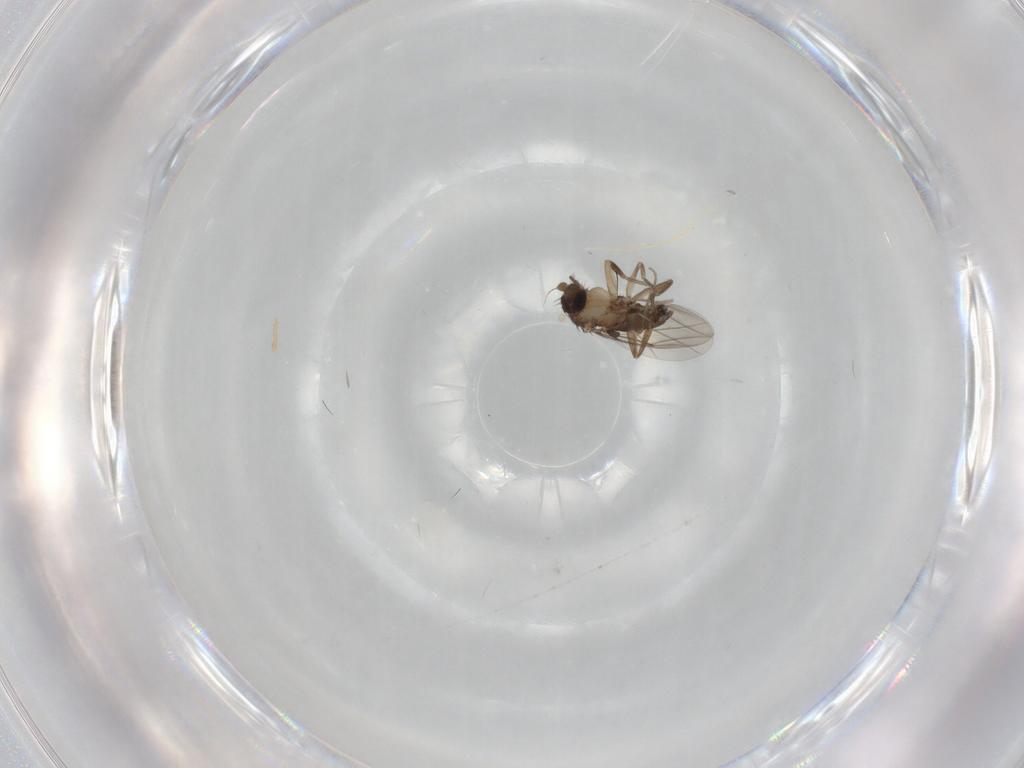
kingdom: Animalia
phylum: Arthropoda
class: Insecta
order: Diptera
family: Phoridae
